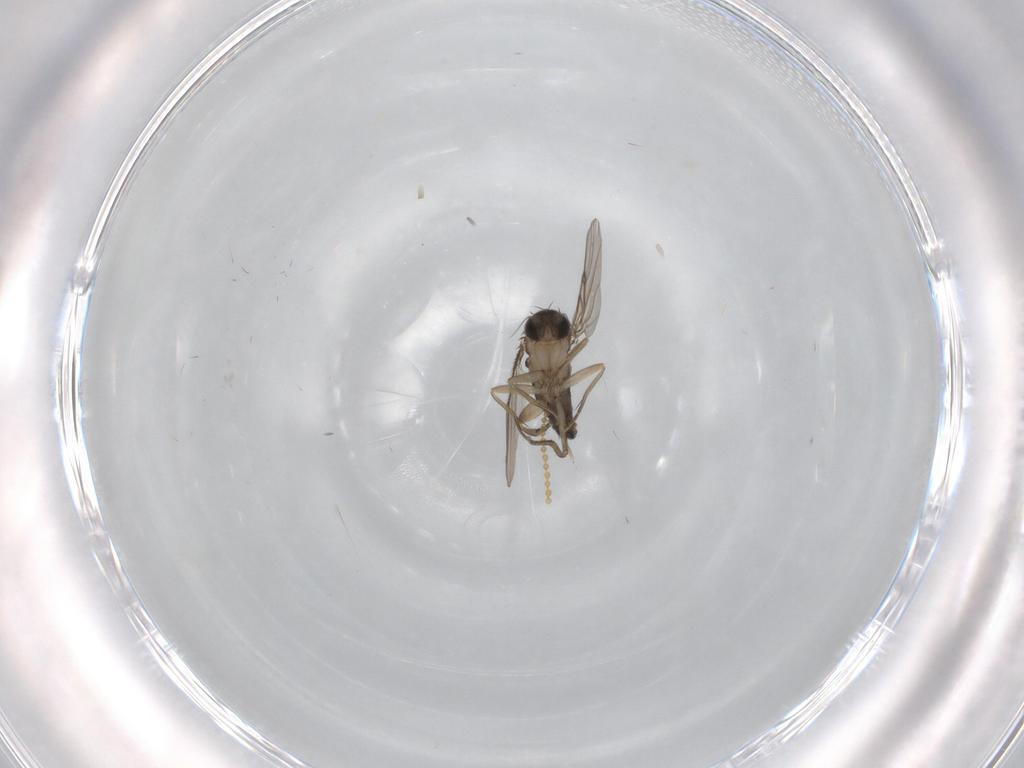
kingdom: Animalia
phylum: Arthropoda
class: Insecta
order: Diptera
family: Cecidomyiidae
